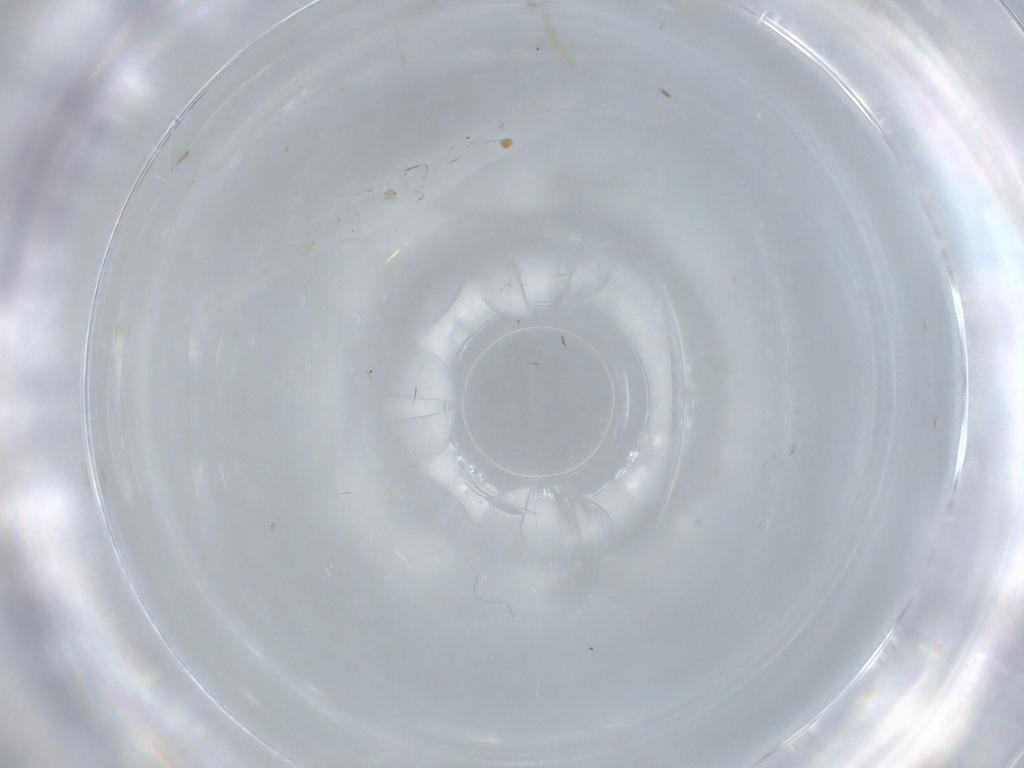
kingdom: Animalia
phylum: Arthropoda
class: Insecta
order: Diptera
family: Phoridae
